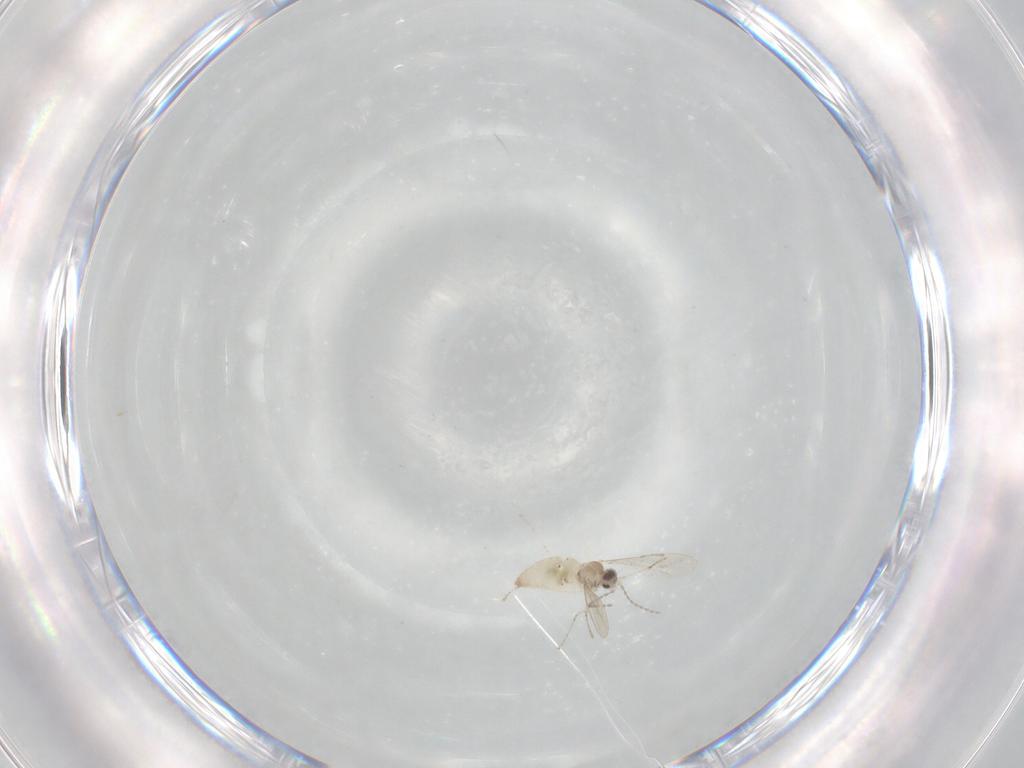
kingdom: Animalia
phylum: Arthropoda
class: Insecta
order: Diptera
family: Cecidomyiidae
